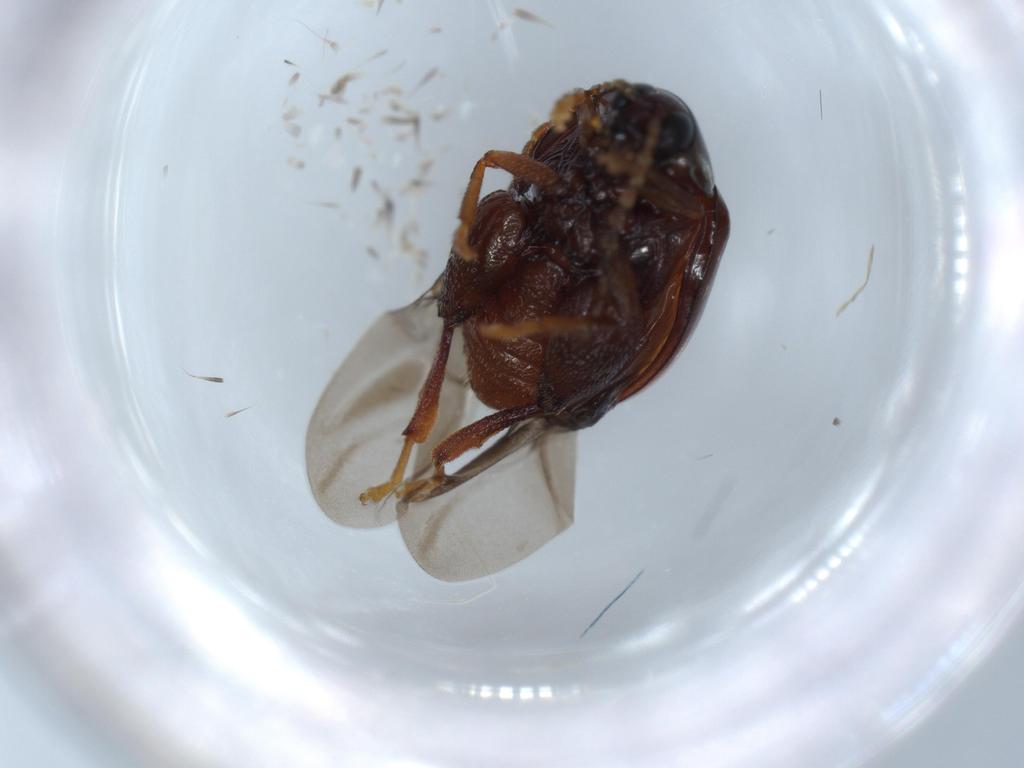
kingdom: Animalia
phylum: Arthropoda
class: Insecta
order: Coleoptera
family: Chrysomelidae
